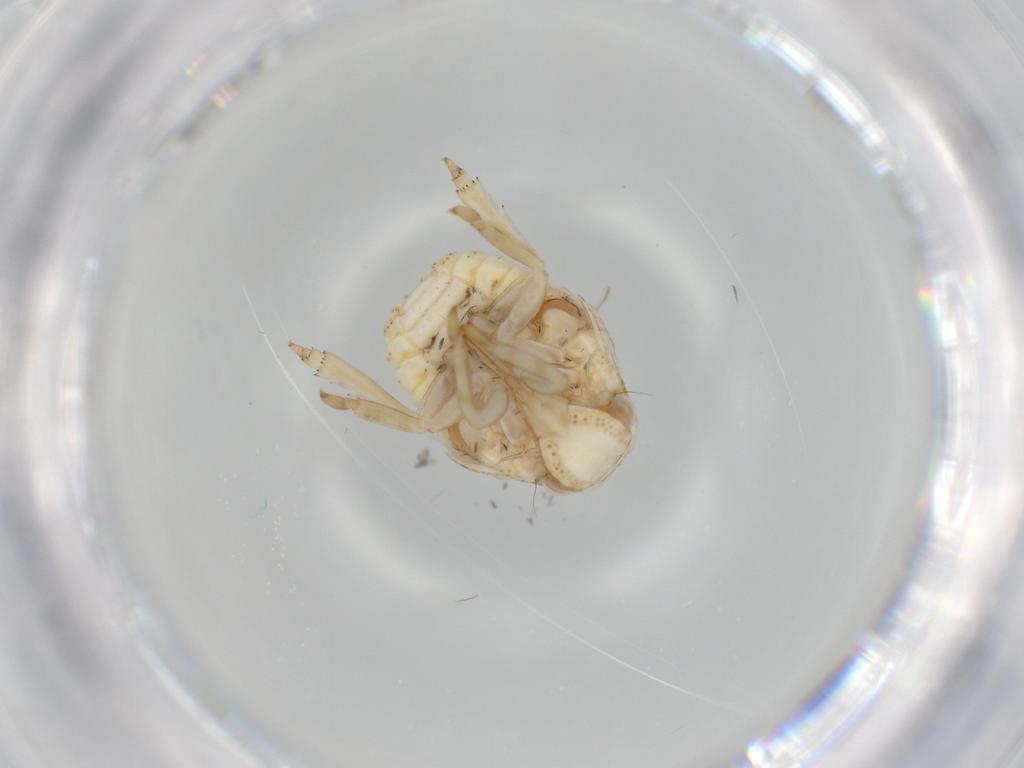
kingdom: Animalia
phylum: Arthropoda
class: Insecta
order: Hemiptera
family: Acanaloniidae
